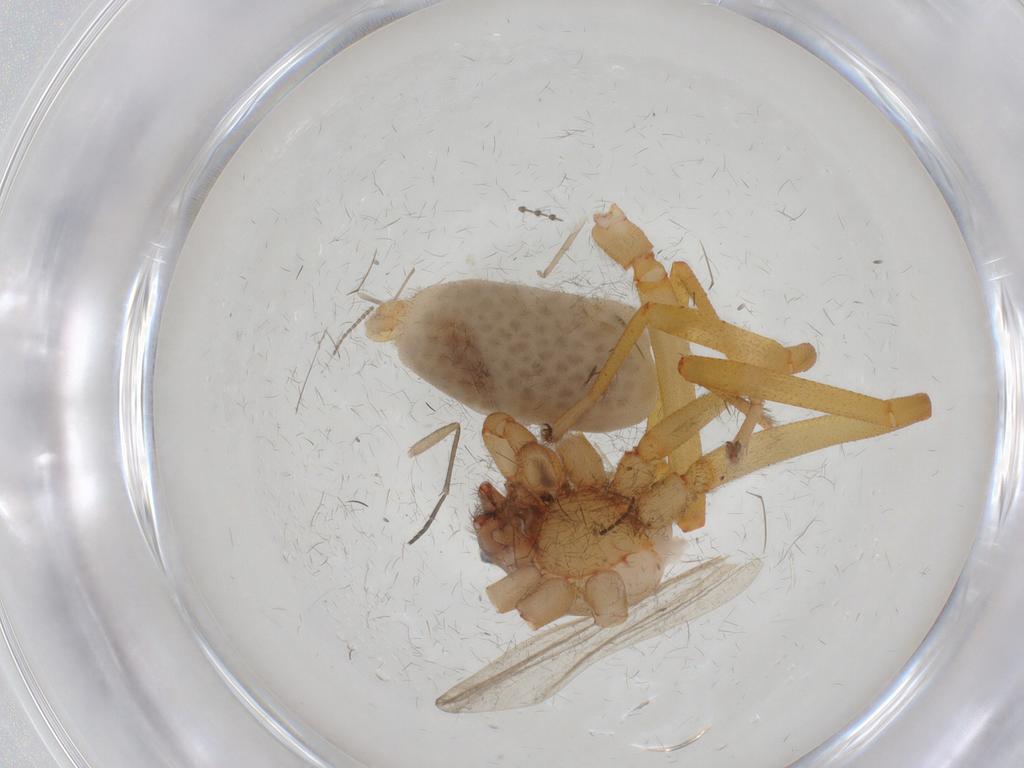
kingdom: Animalia
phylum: Arthropoda
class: Arachnida
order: Araneae
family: Dysderidae
